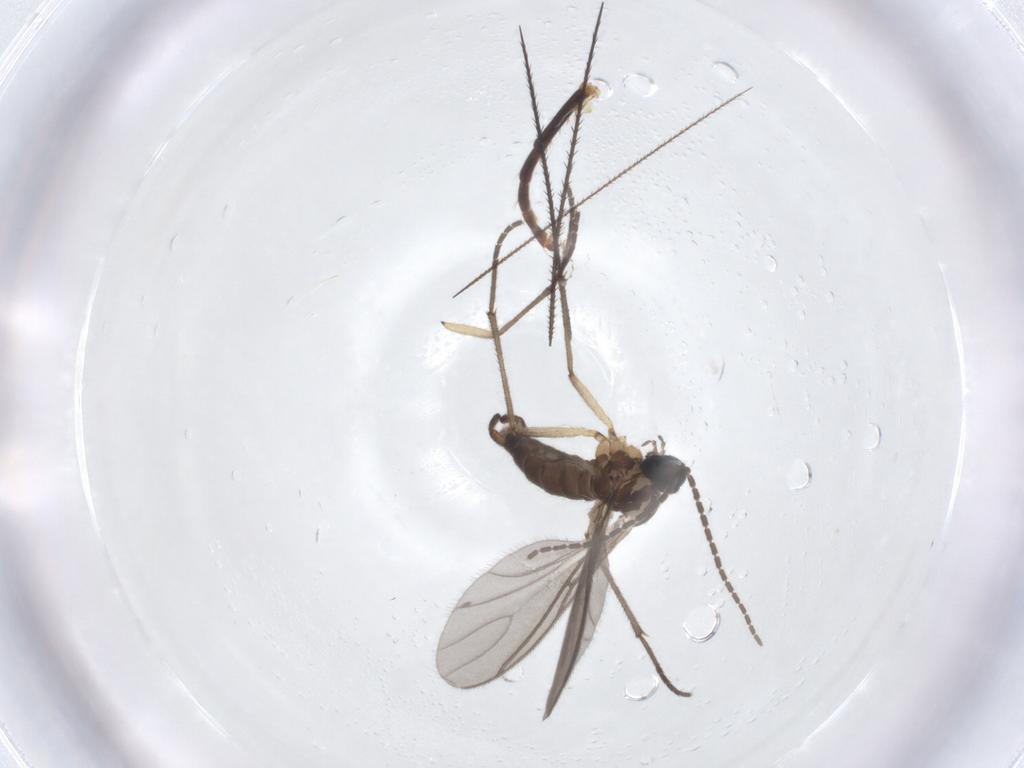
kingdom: Animalia
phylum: Arthropoda
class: Insecta
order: Diptera
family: Sciaridae
